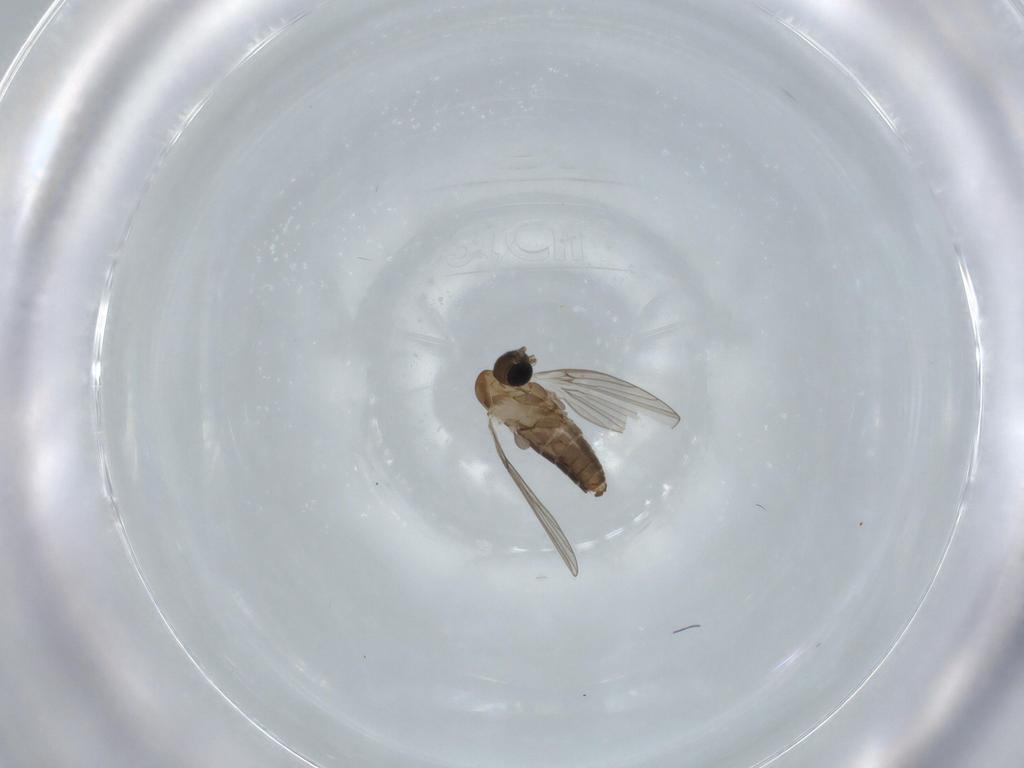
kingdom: Animalia
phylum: Arthropoda
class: Insecta
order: Diptera
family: Psychodidae
